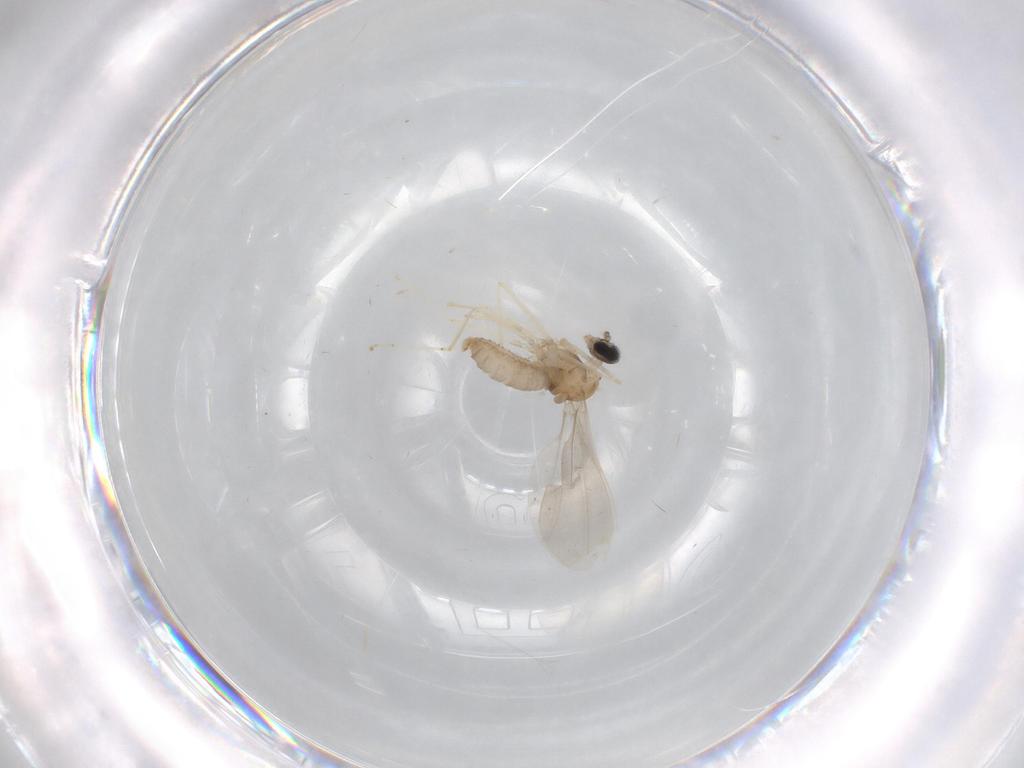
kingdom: Animalia
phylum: Arthropoda
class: Insecta
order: Diptera
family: Cecidomyiidae
